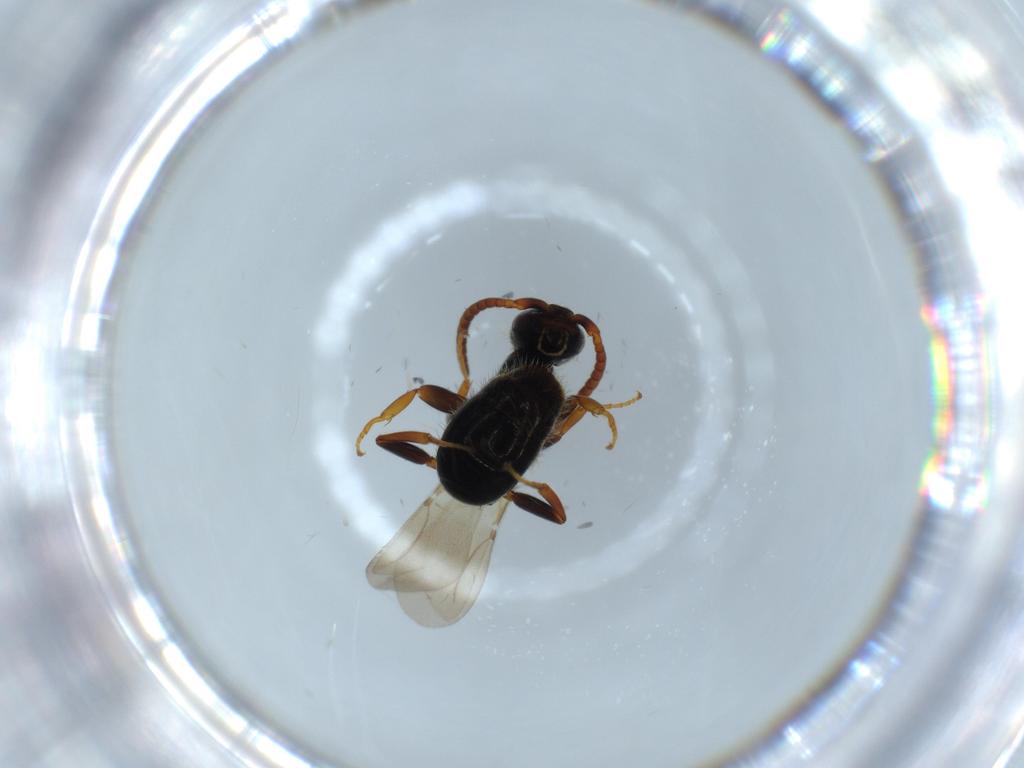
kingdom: Animalia
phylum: Arthropoda
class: Insecta
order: Hymenoptera
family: Bethylidae
